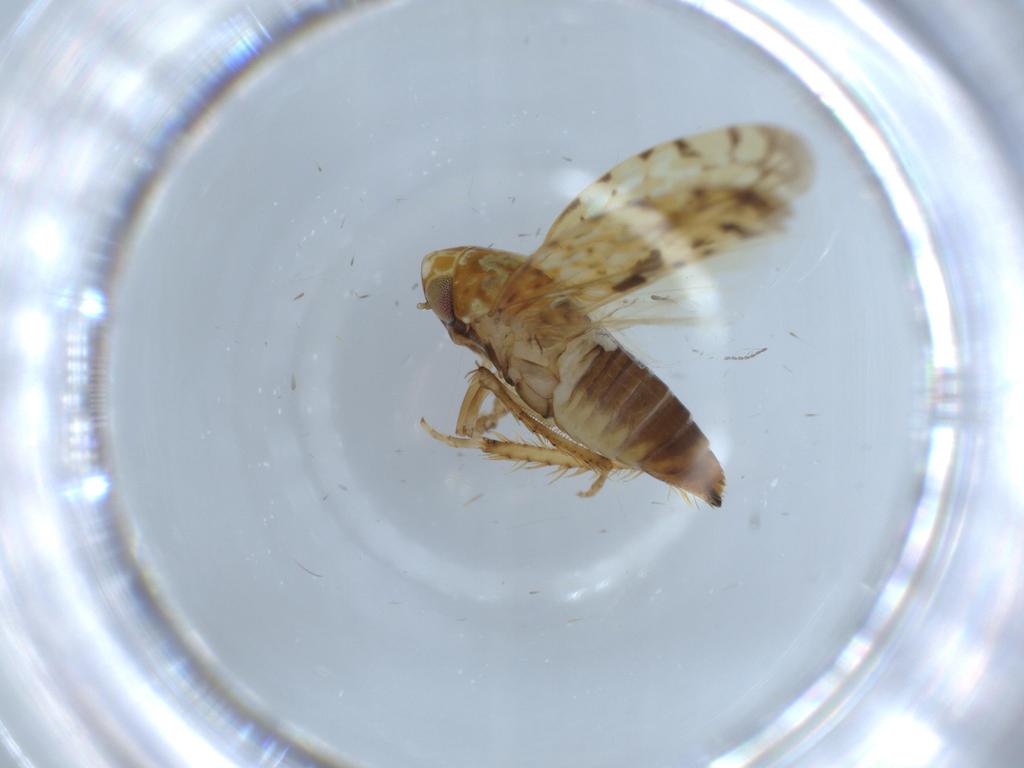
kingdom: Animalia
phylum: Arthropoda
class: Insecta
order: Hemiptera
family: Cicadellidae
